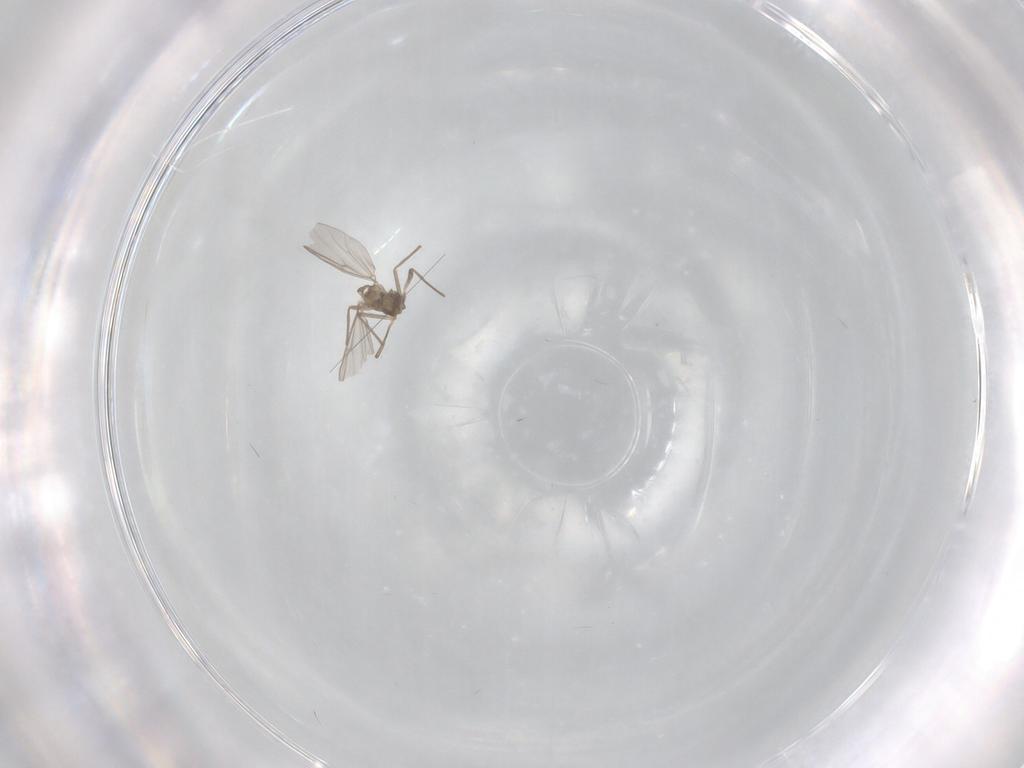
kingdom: Animalia
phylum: Arthropoda
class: Insecta
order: Diptera
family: Chironomidae
